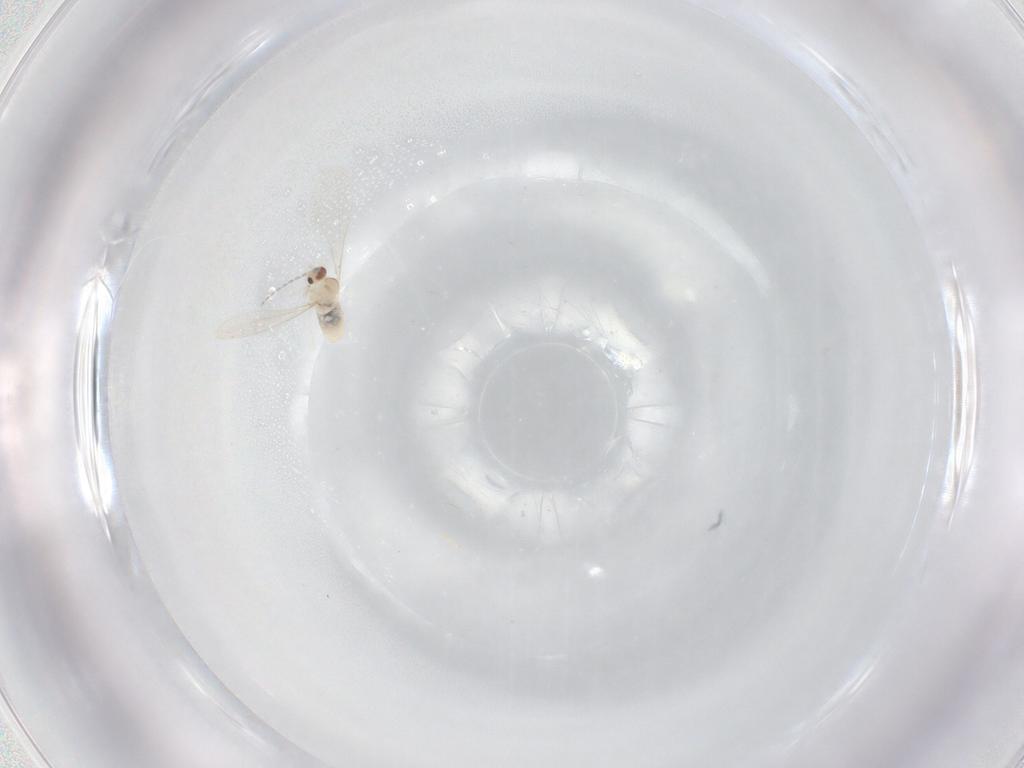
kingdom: Animalia
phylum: Arthropoda
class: Insecta
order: Diptera
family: Cecidomyiidae
